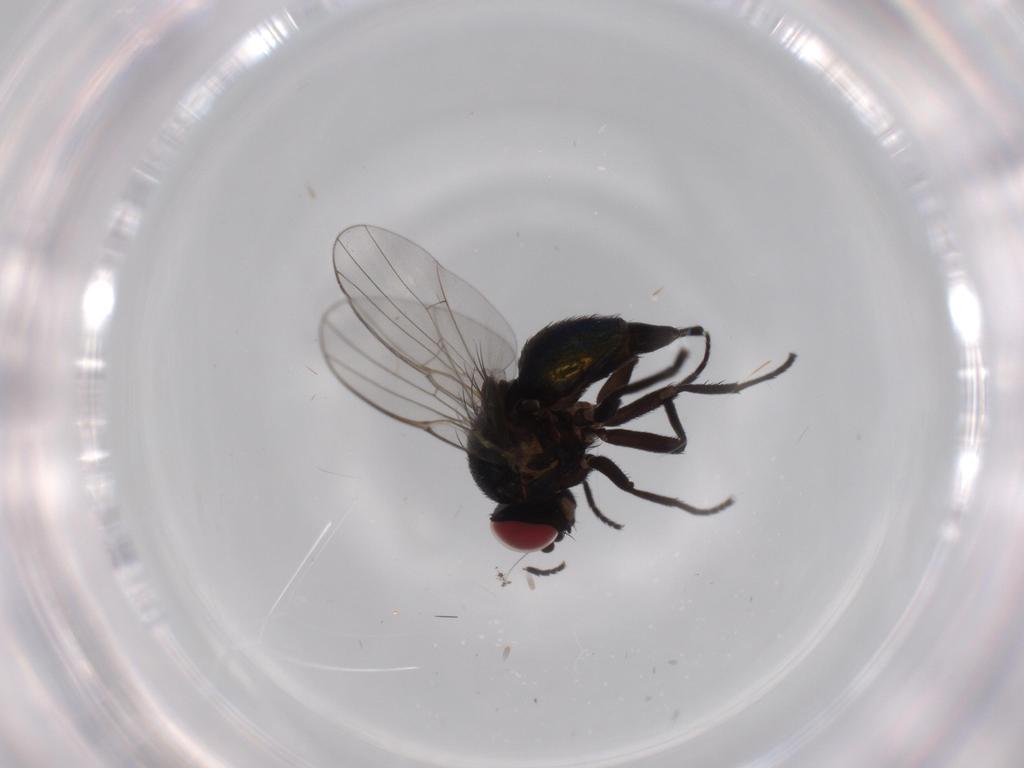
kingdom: Animalia
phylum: Arthropoda
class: Insecta
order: Diptera
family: Agromyzidae
